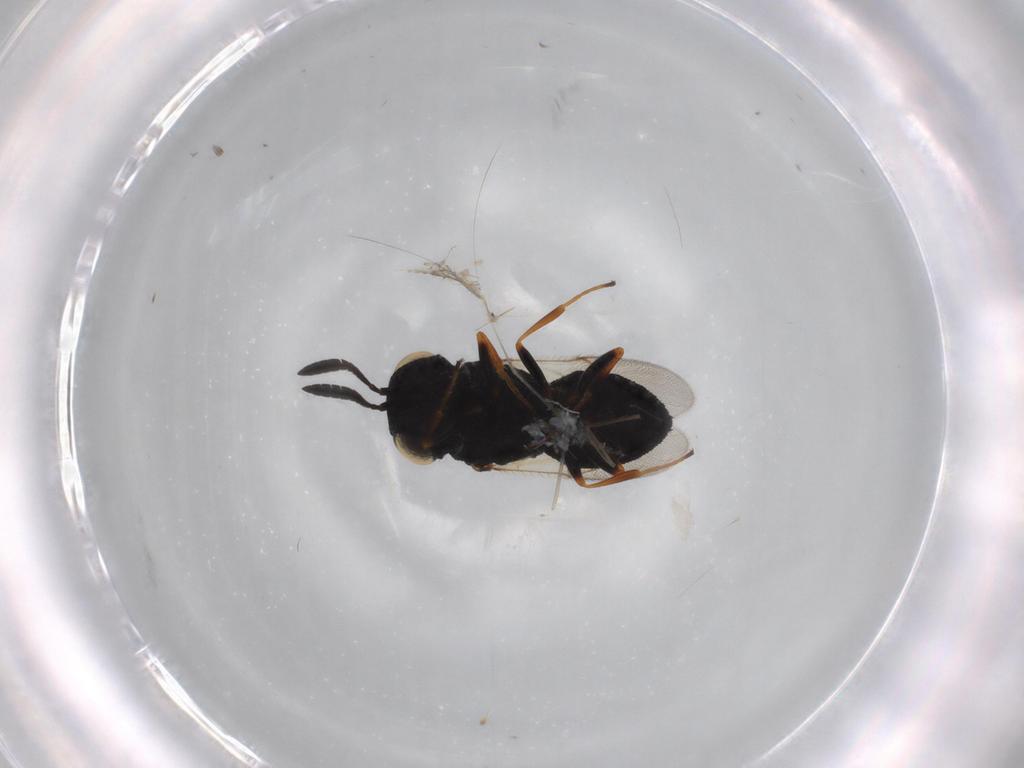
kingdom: Animalia
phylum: Arthropoda
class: Insecta
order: Hymenoptera
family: Scelionidae
